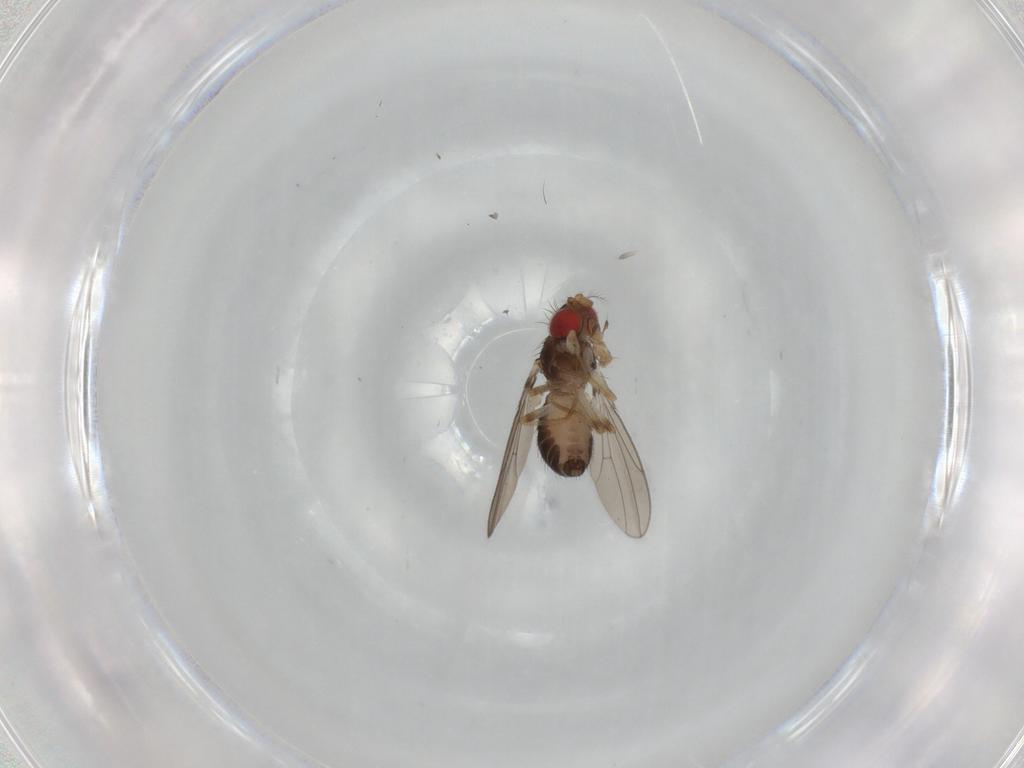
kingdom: Animalia
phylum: Arthropoda
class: Insecta
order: Diptera
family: Drosophilidae
